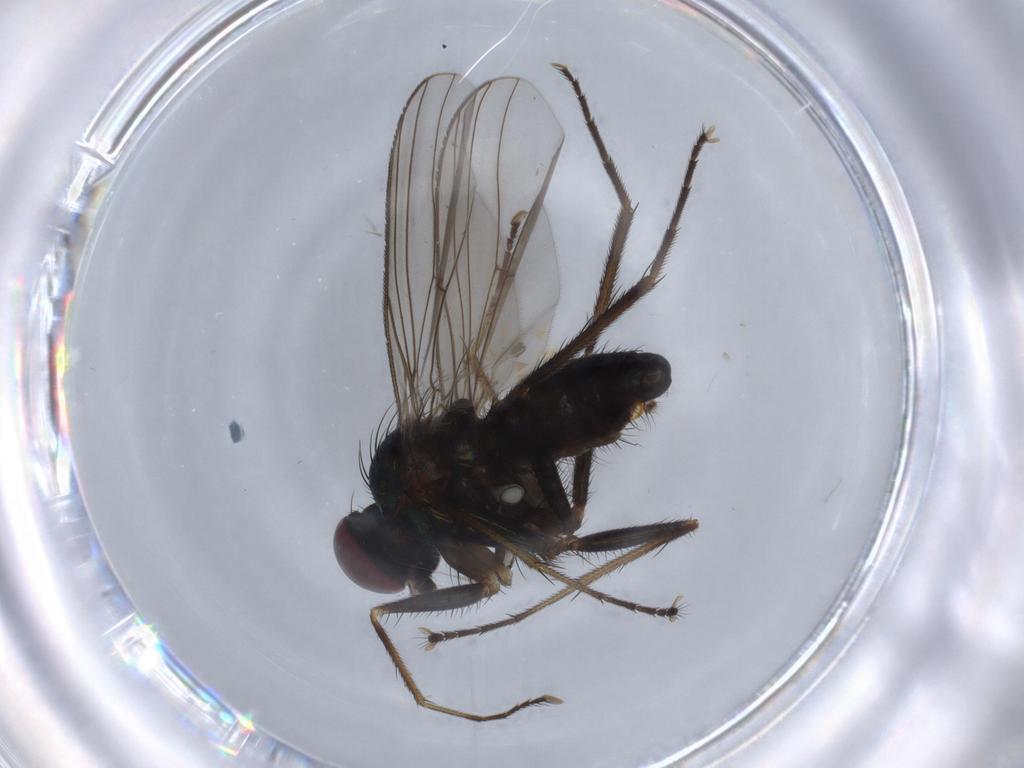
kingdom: Animalia
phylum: Arthropoda
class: Insecta
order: Diptera
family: Dolichopodidae
